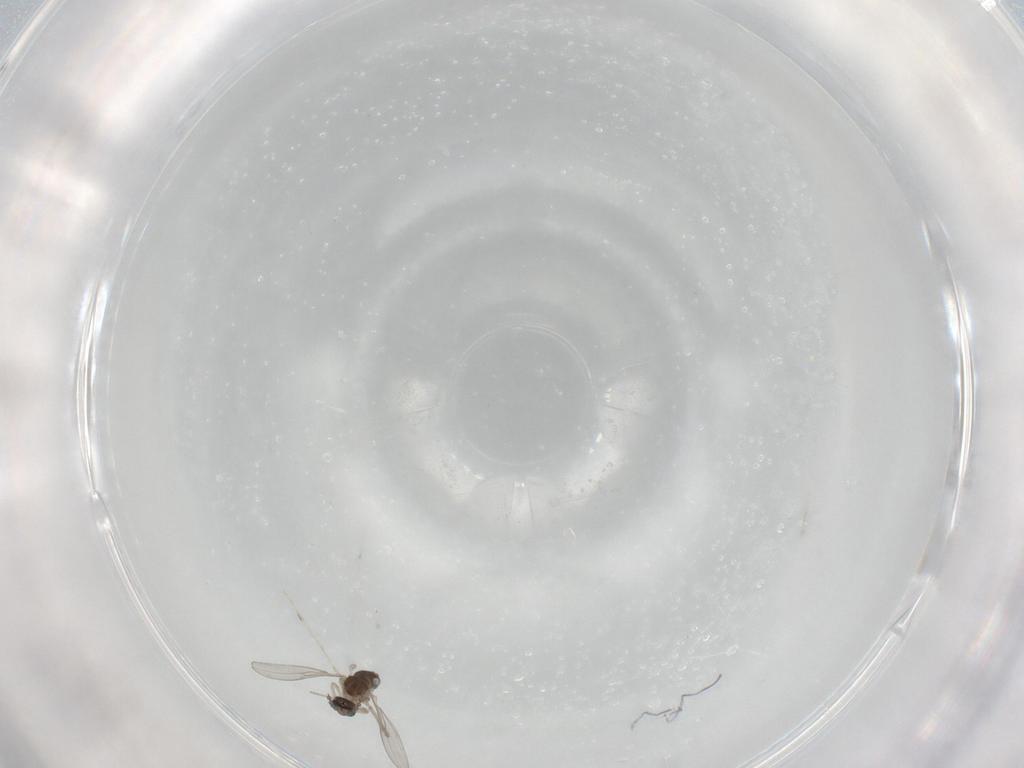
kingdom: Animalia
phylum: Arthropoda
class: Insecta
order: Diptera
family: Cecidomyiidae
